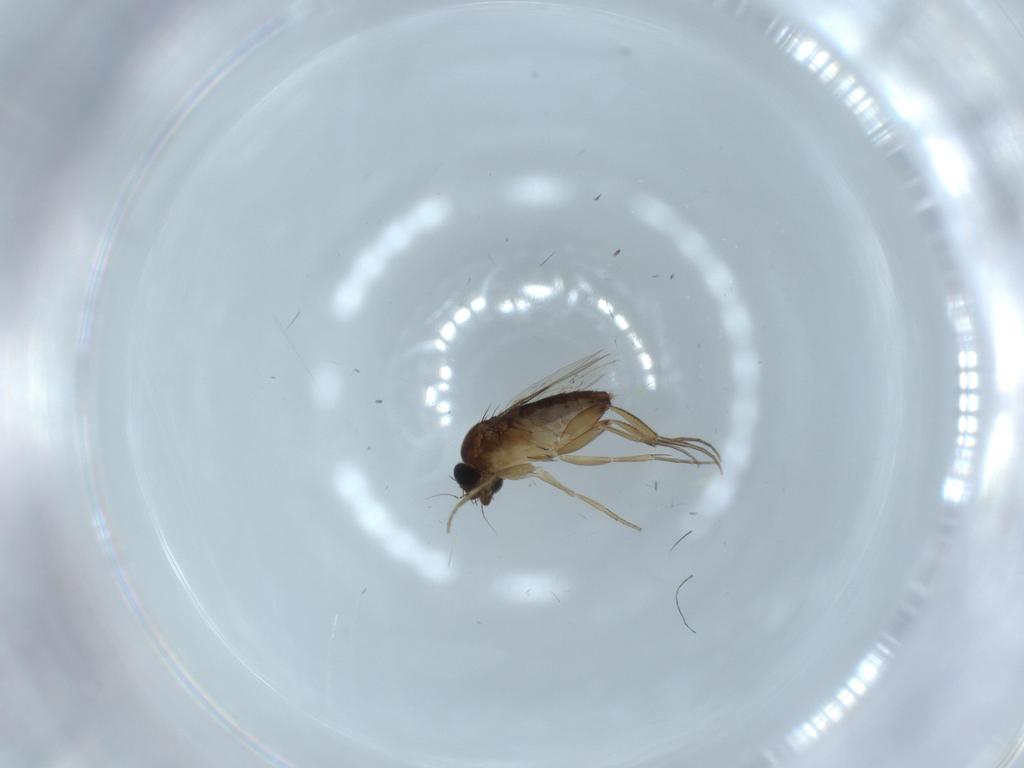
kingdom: Animalia
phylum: Arthropoda
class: Insecta
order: Diptera
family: Phoridae
